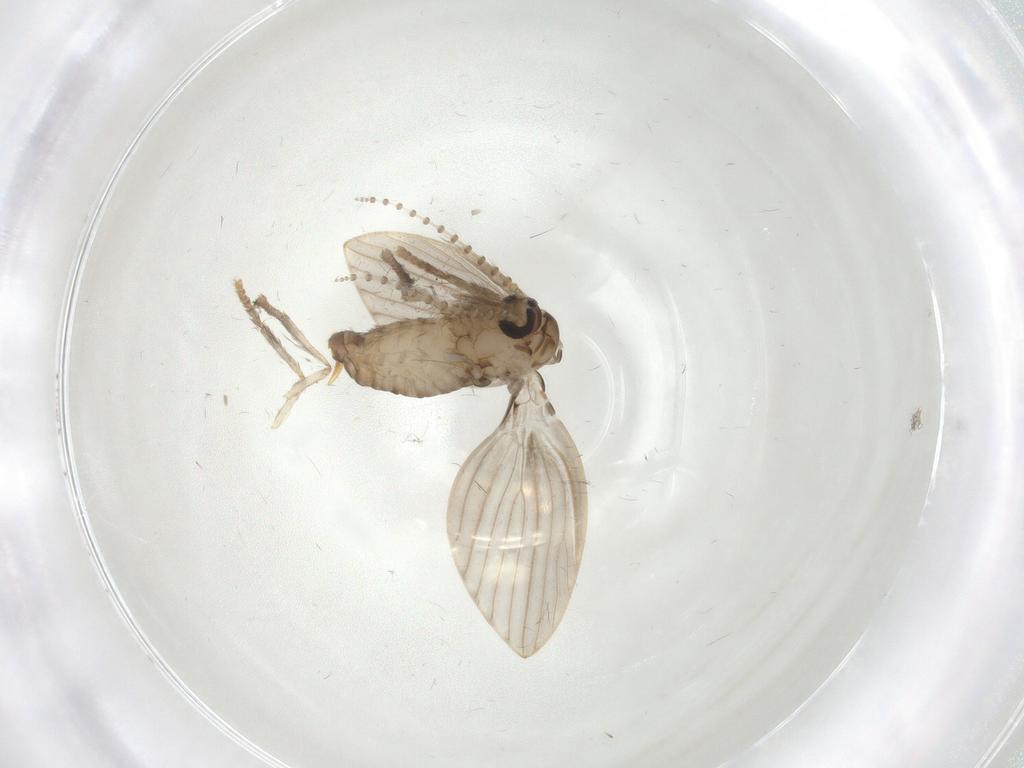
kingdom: Animalia
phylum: Arthropoda
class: Insecta
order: Diptera
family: Psychodidae
